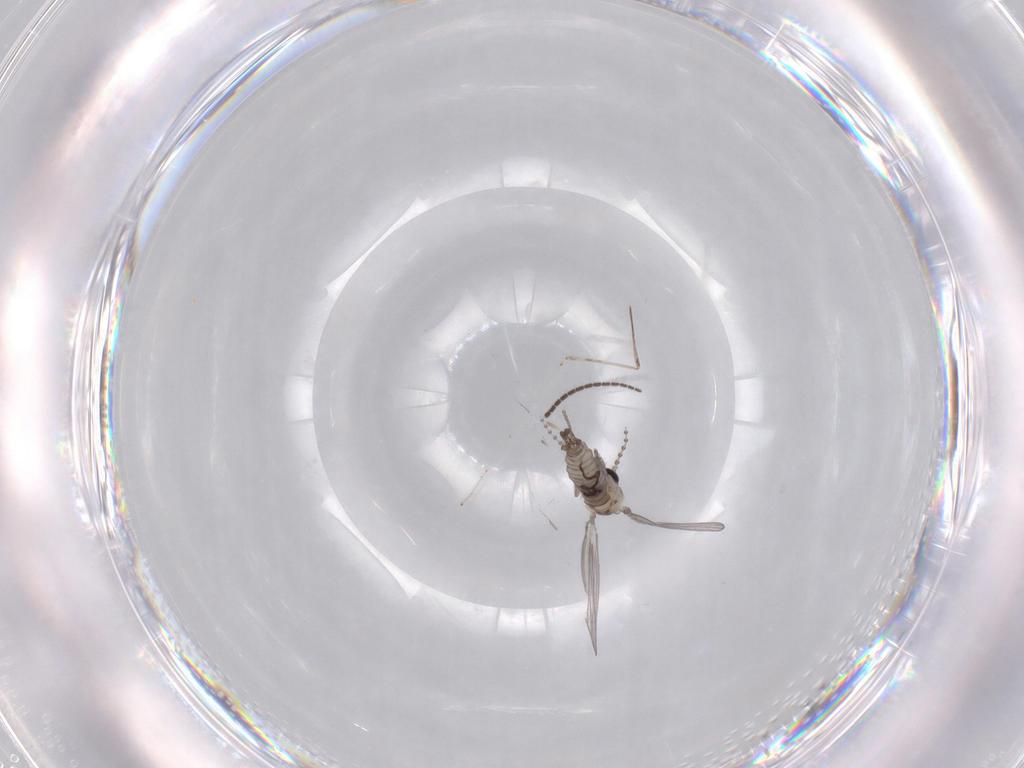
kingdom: Animalia
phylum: Arthropoda
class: Insecta
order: Diptera
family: Psychodidae
